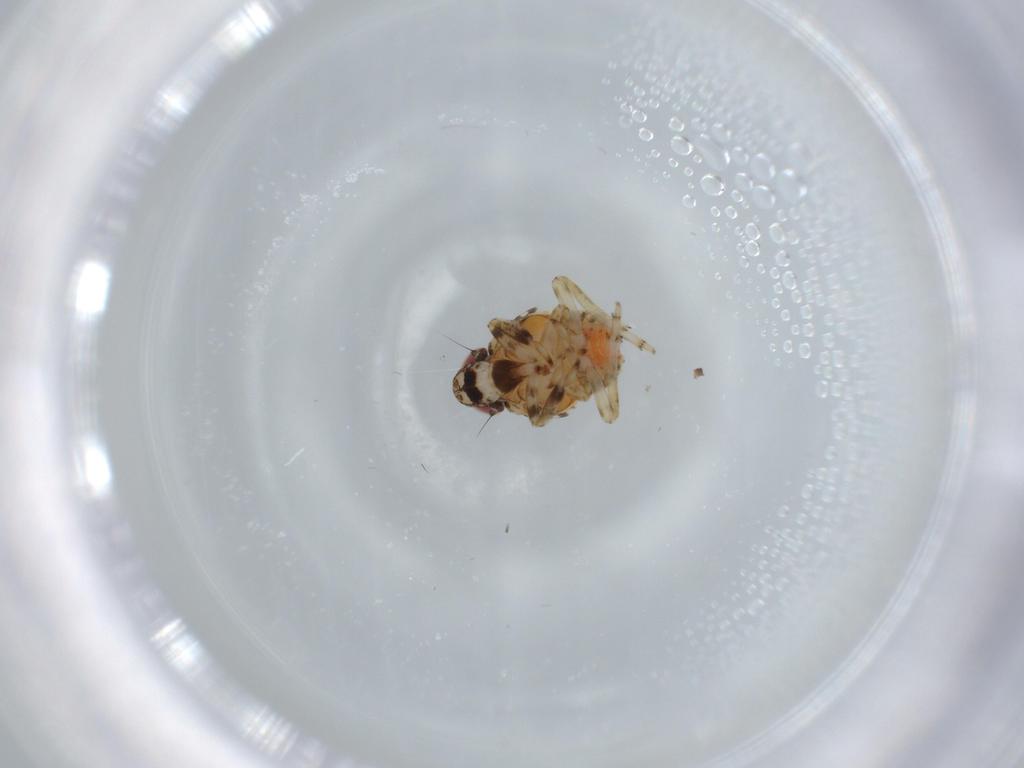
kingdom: Animalia
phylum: Arthropoda
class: Insecta
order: Hemiptera
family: Issidae
